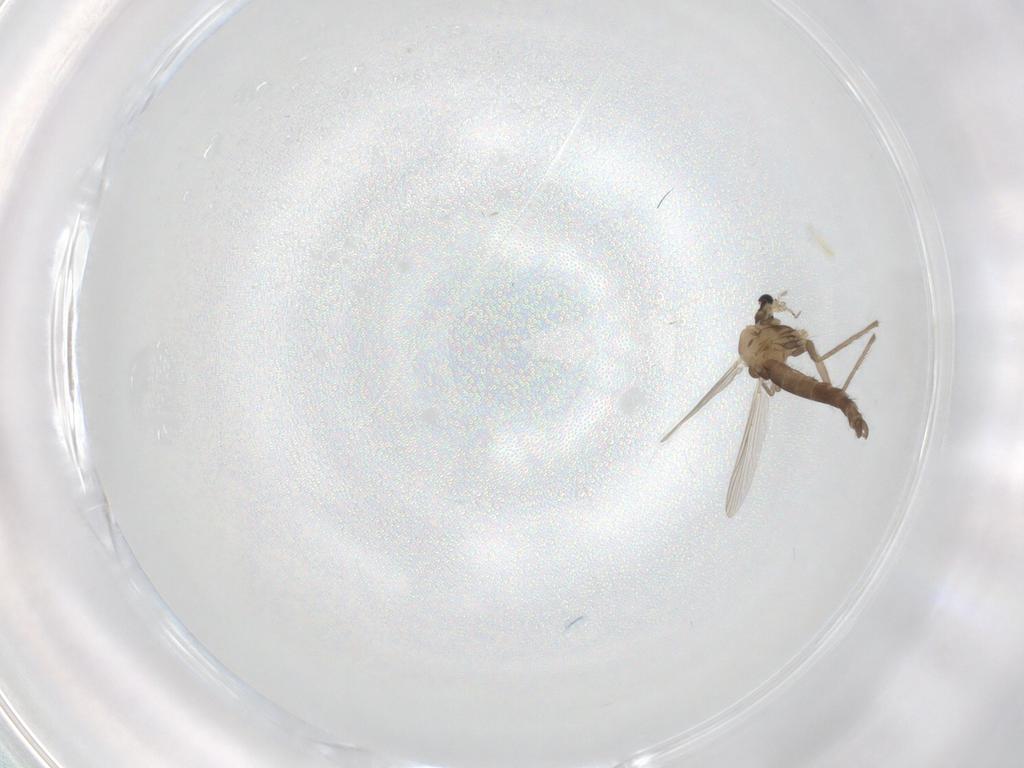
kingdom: Animalia
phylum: Arthropoda
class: Insecta
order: Diptera
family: Chironomidae
